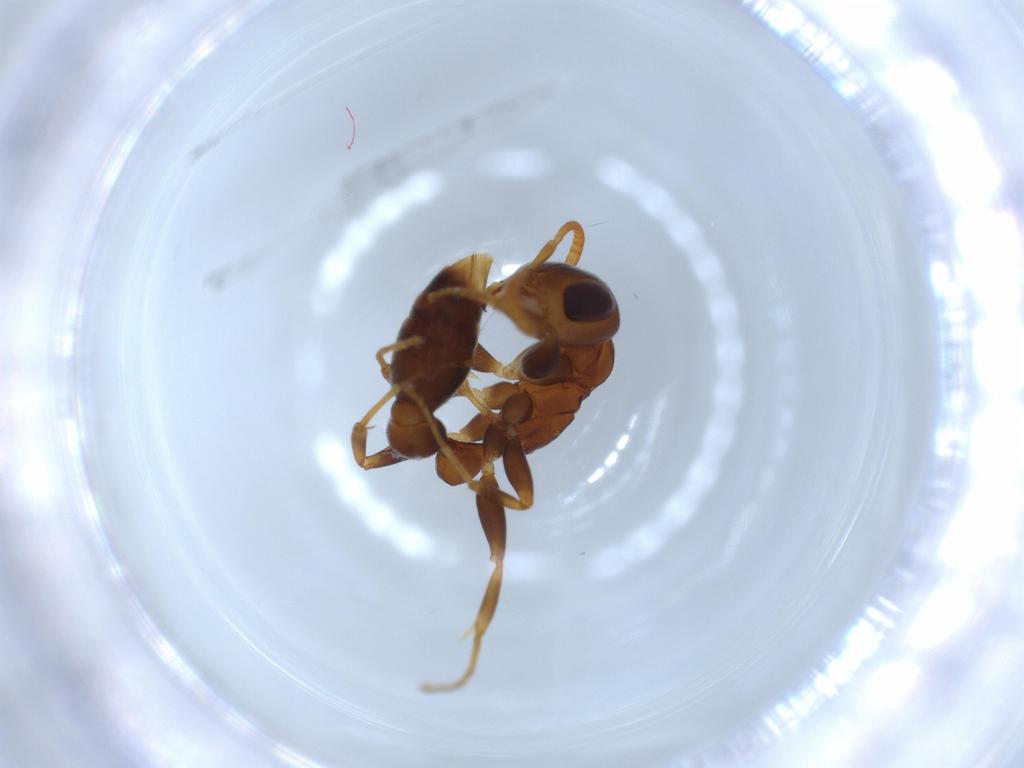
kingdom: Animalia
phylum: Arthropoda
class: Insecta
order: Hymenoptera
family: Formicidae
